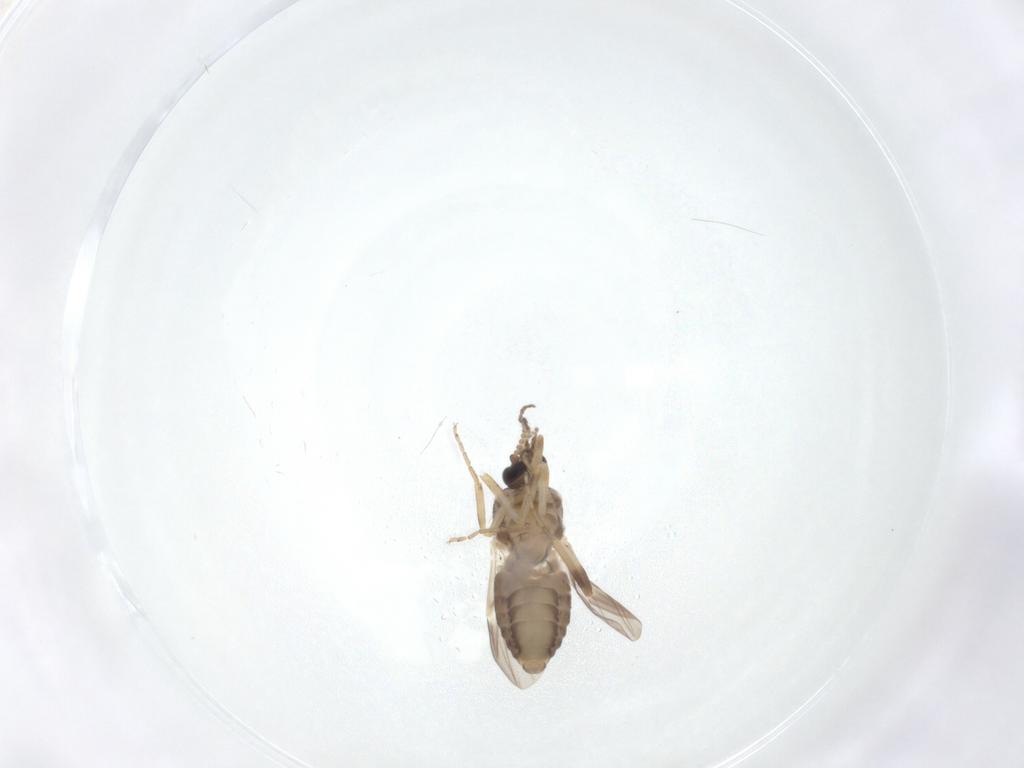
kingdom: Animalia
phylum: Arthropoda
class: Insecta
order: Diptera
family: Ceratopogonidae
